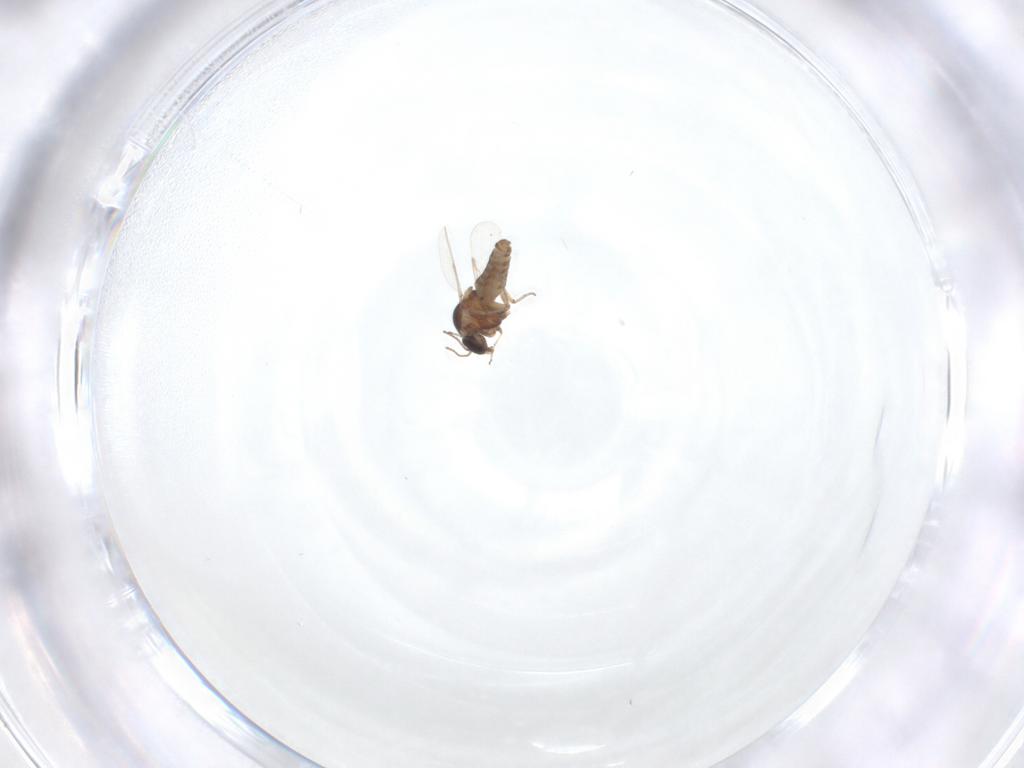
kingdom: Animalia
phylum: Arthropoda
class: Insecta
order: Diptera
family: Ceratopogonidae
